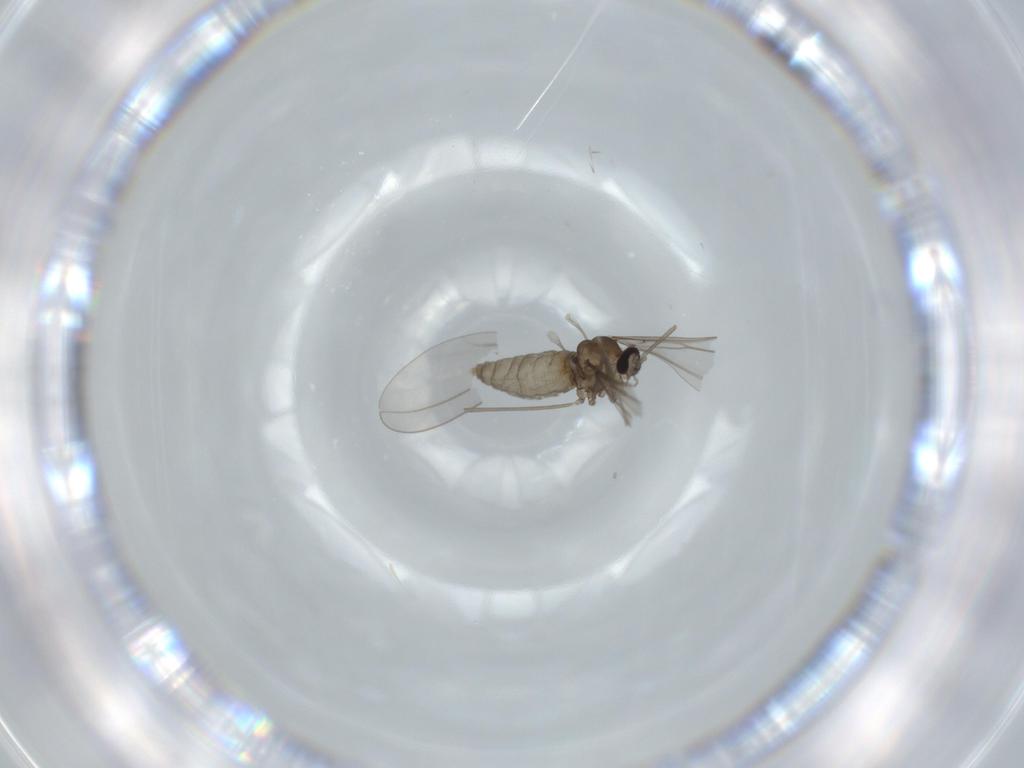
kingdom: Animalia
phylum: Arthropoda
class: Insecta
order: Diptera
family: Cecidomyiidae
